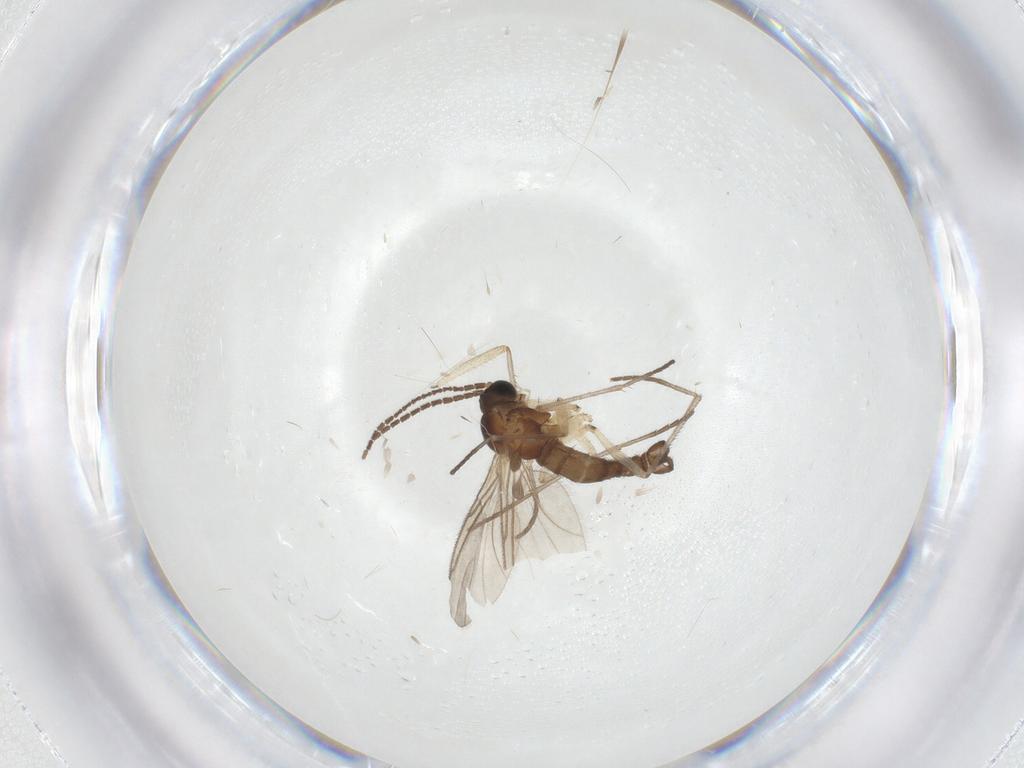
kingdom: Animalia
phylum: Arthropoda
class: Insecta
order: Diptera
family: Sciaridae
